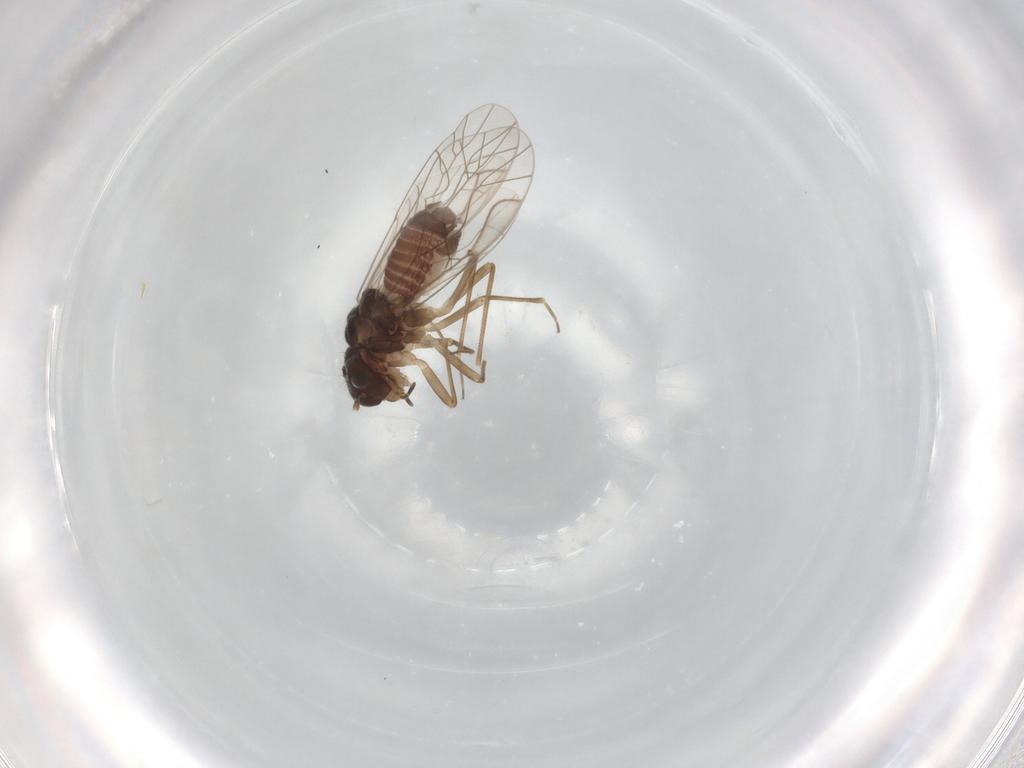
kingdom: Animalia
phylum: Arthropoda
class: Insecta
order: Psocodea
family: Lachesillidae
